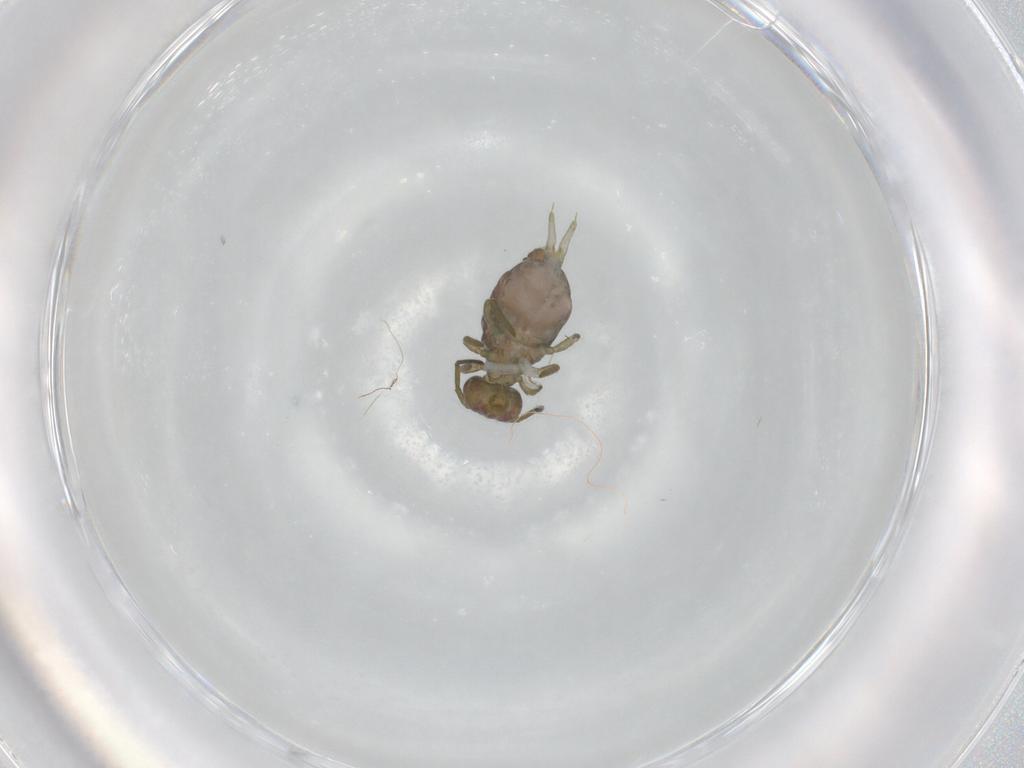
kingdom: Animalia
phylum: Arthropoda
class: Collembola
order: Symphypleona
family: Sminthuridae
